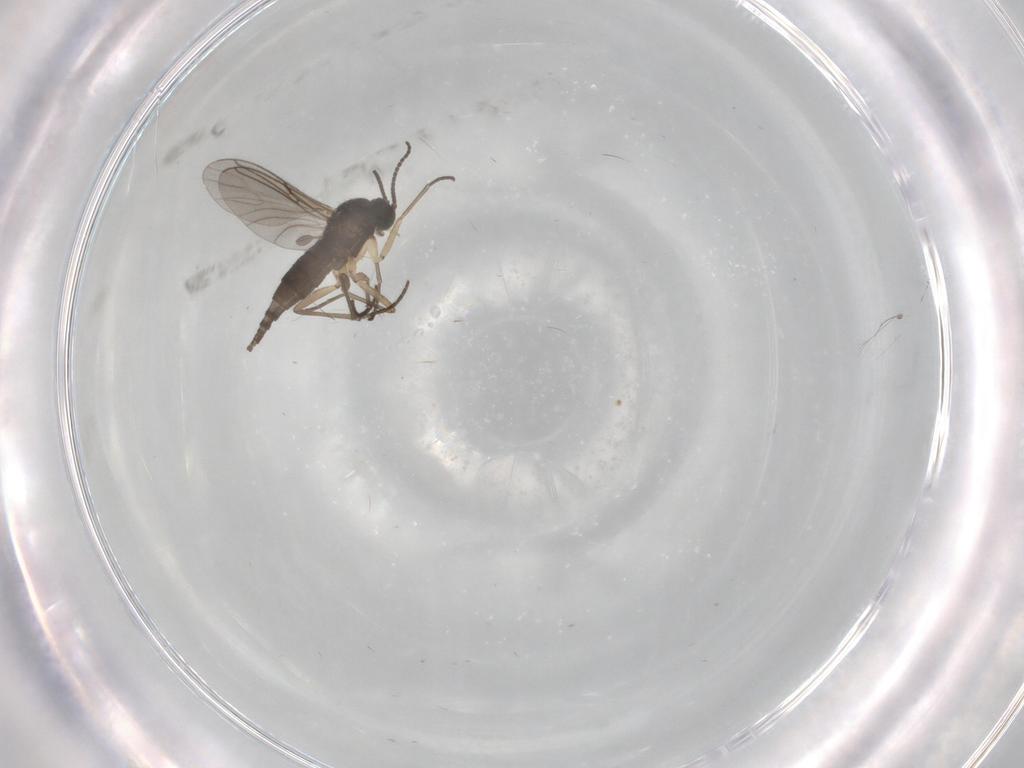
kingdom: Animalia
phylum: Arthropoda
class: Insecta
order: Diptera
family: Sciaridae
